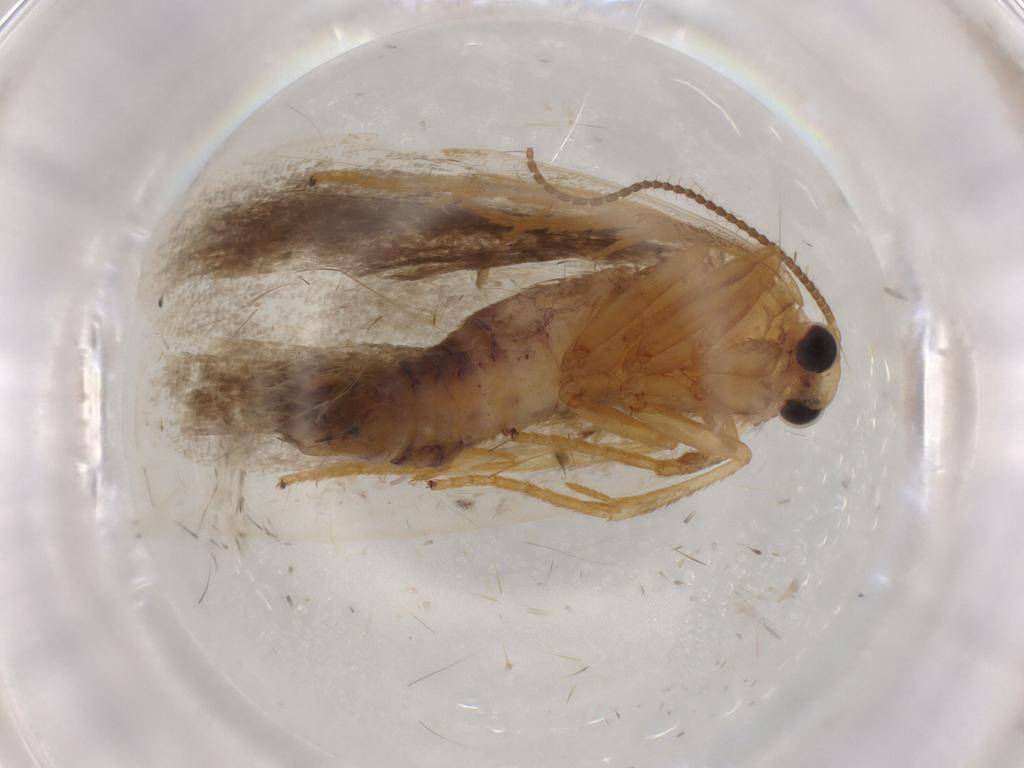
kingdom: Animalia
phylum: Arthropoda
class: Insecta
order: Lepidoptera
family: Erebidae
